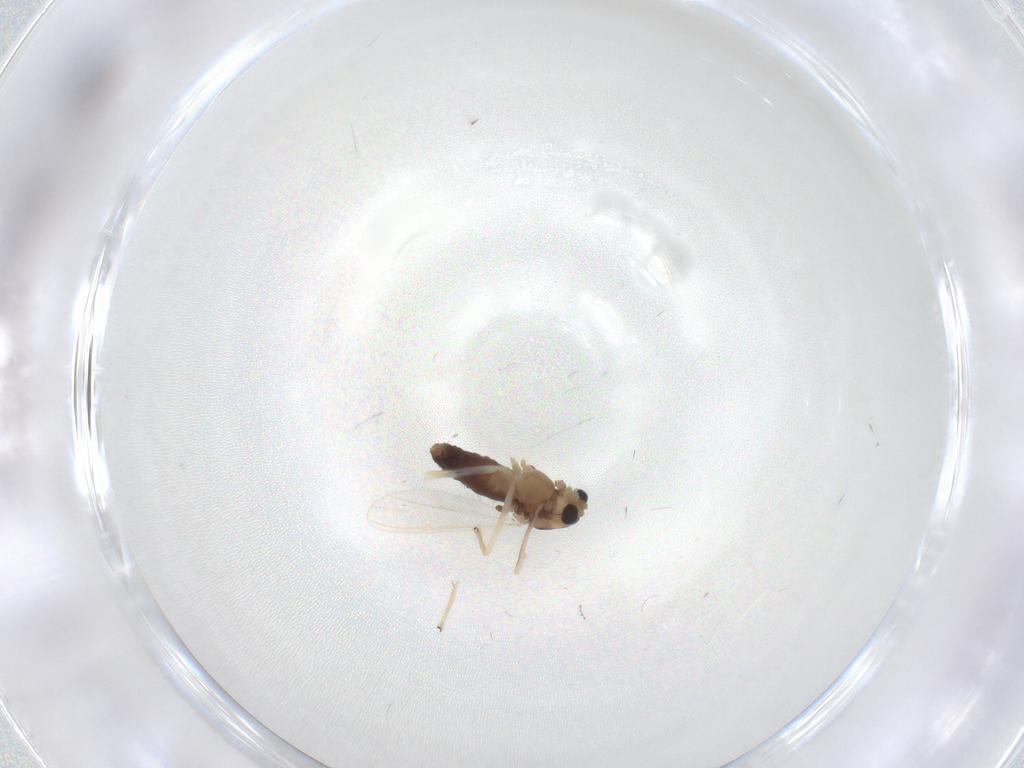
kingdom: Animalia
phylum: Arthropoda
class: Insecta
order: Diptera
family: Chironomidae
